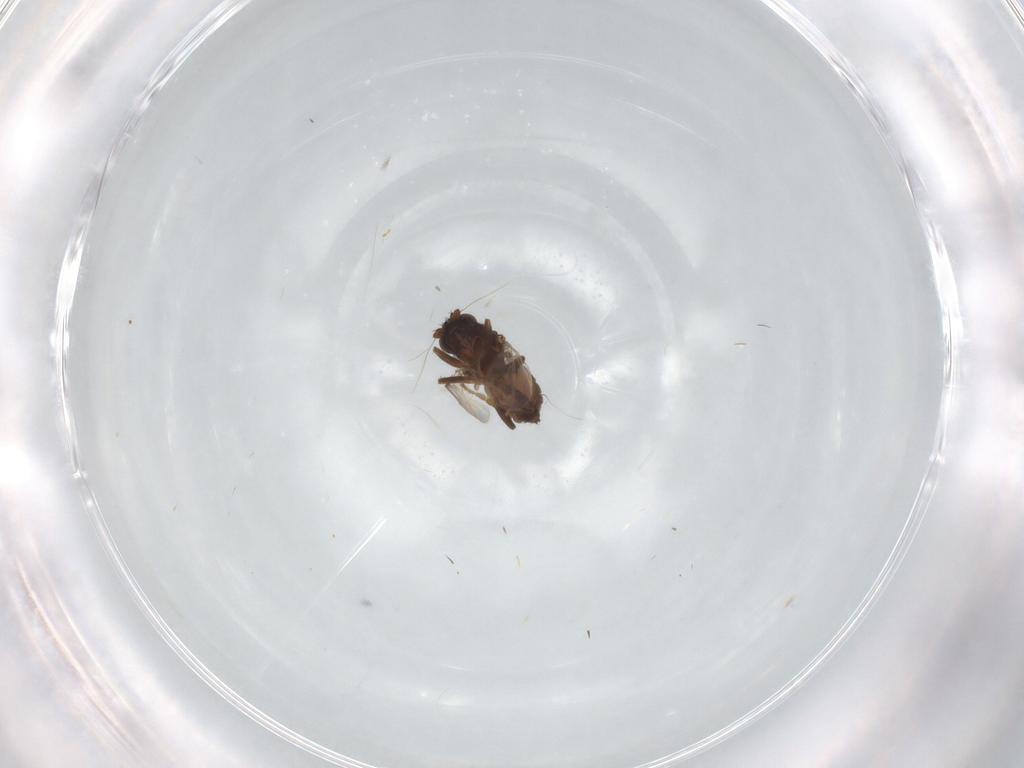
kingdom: Animalia
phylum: Arthropoda
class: Insecta
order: Diptera
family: Sphaeroceridae
